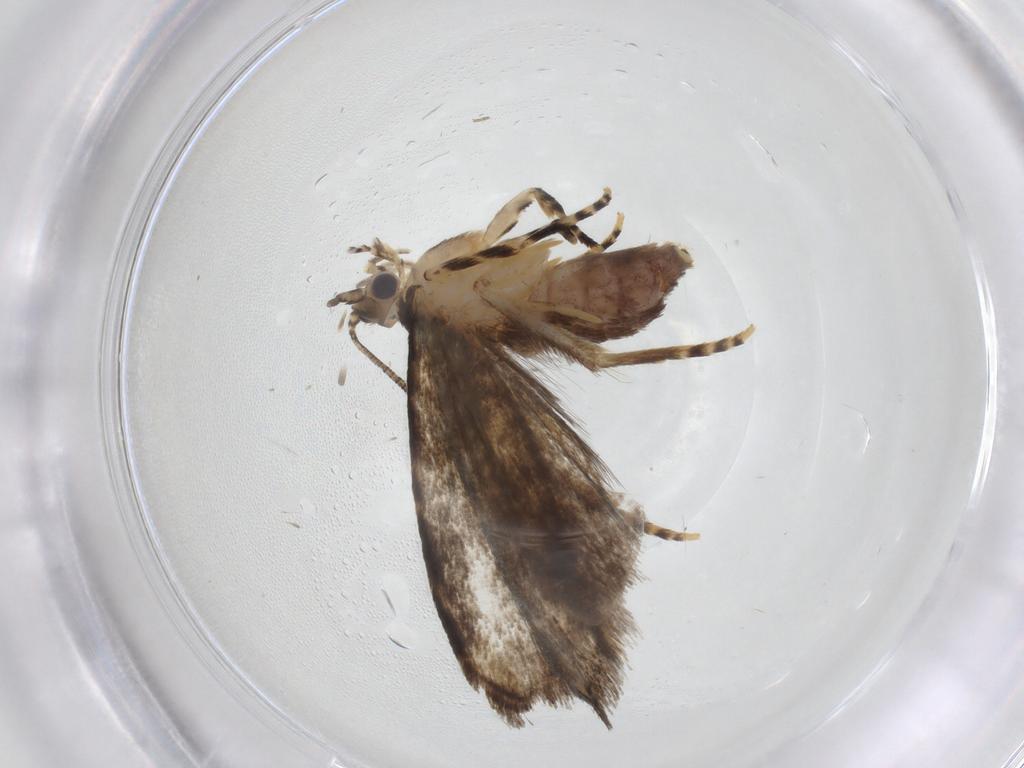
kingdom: Animalia
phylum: Arthropoda
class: Insecta
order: Lepidoptera
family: Tineidae
